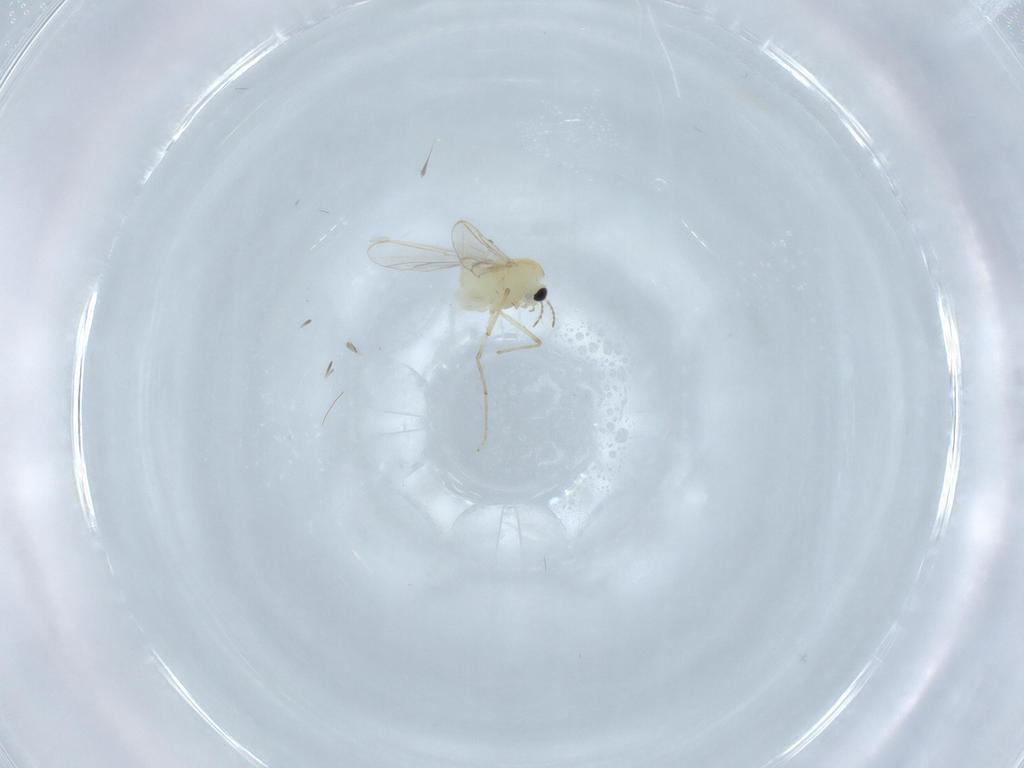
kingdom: Animalia
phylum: Arthropoda
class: Insecta
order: Diptera
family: Chironomidae
